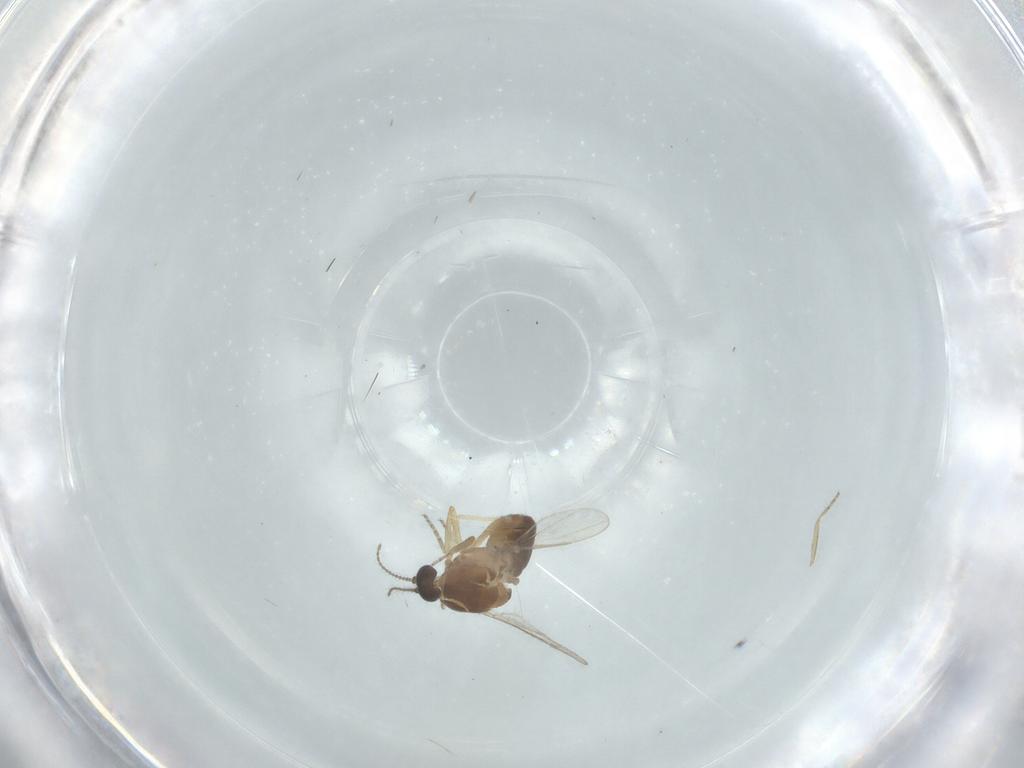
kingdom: Animalia
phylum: Arthropoda
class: Insecta
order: Diptera
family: Ceratopogonidae
